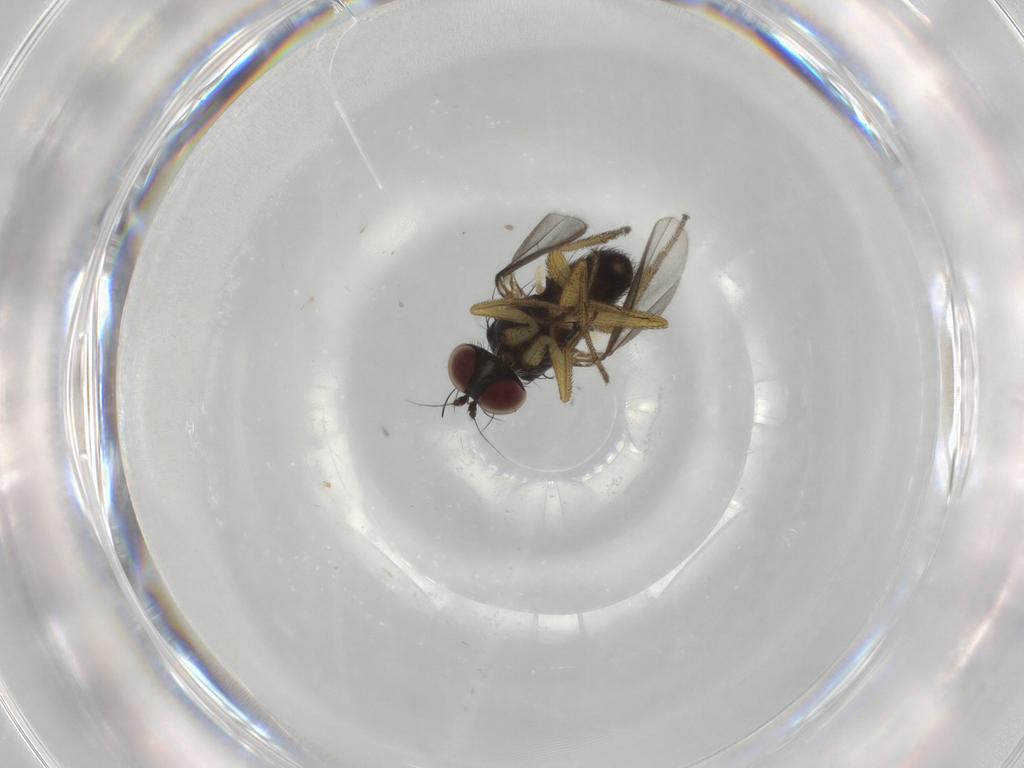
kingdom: Animalia
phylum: Arthropoda
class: Insecta
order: Diptera
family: Dolichopodidae
